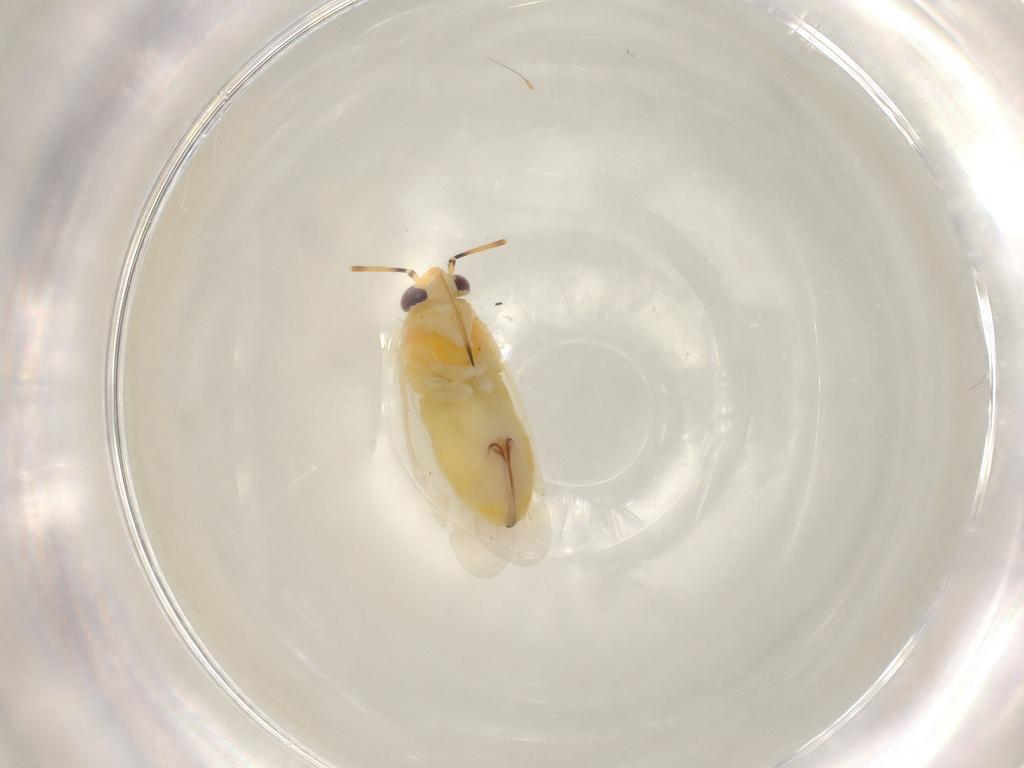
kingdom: Animalia
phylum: Arthropoda
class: Insecta
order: Hemiptera
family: Miridae
